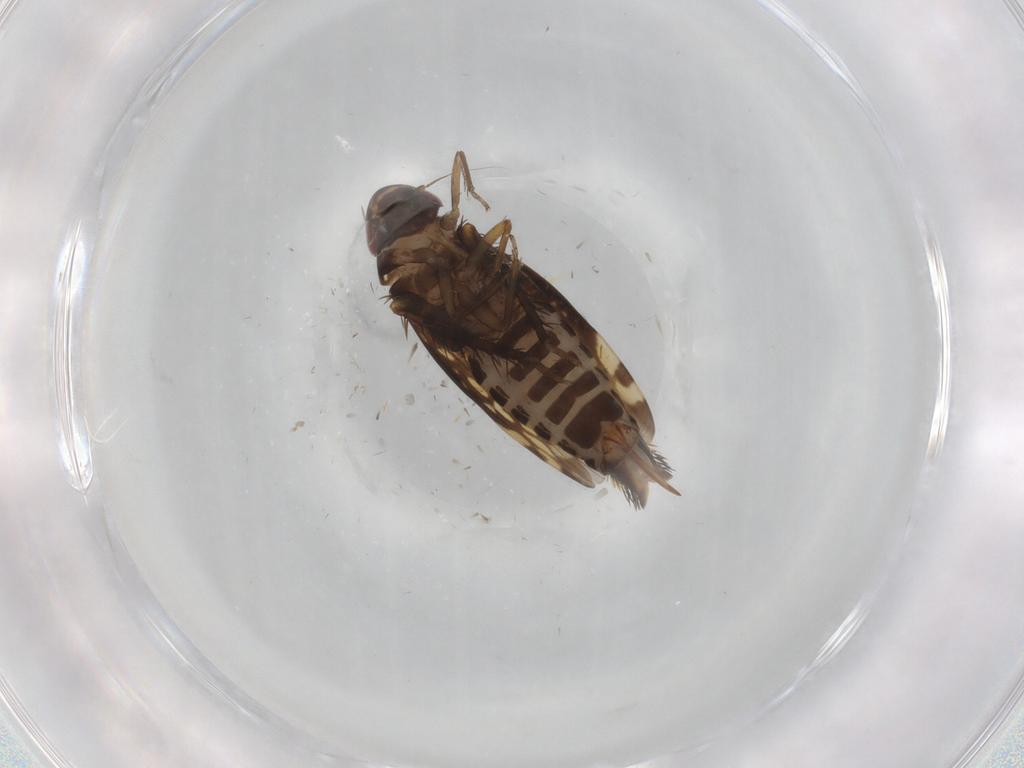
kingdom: Animalia
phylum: Arthropoda
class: Insecta
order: Hemiptera
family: Cicadellidae
